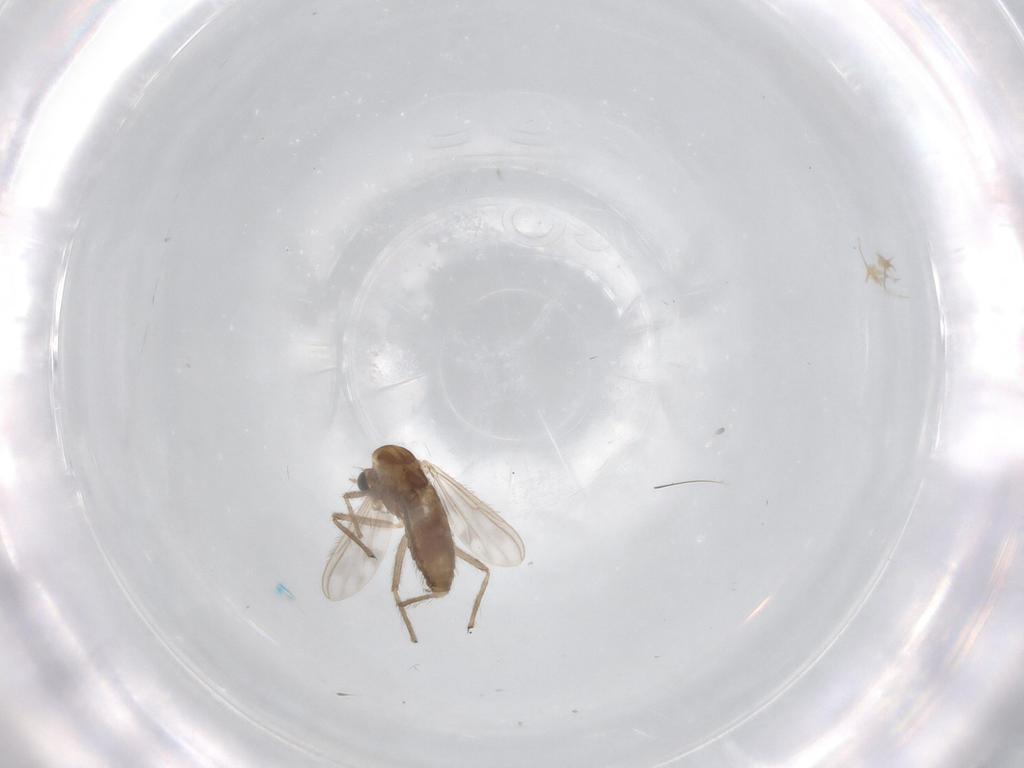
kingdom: Animalia
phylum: Arthropoda
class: Insecta
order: Diptera
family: Chironomidae
